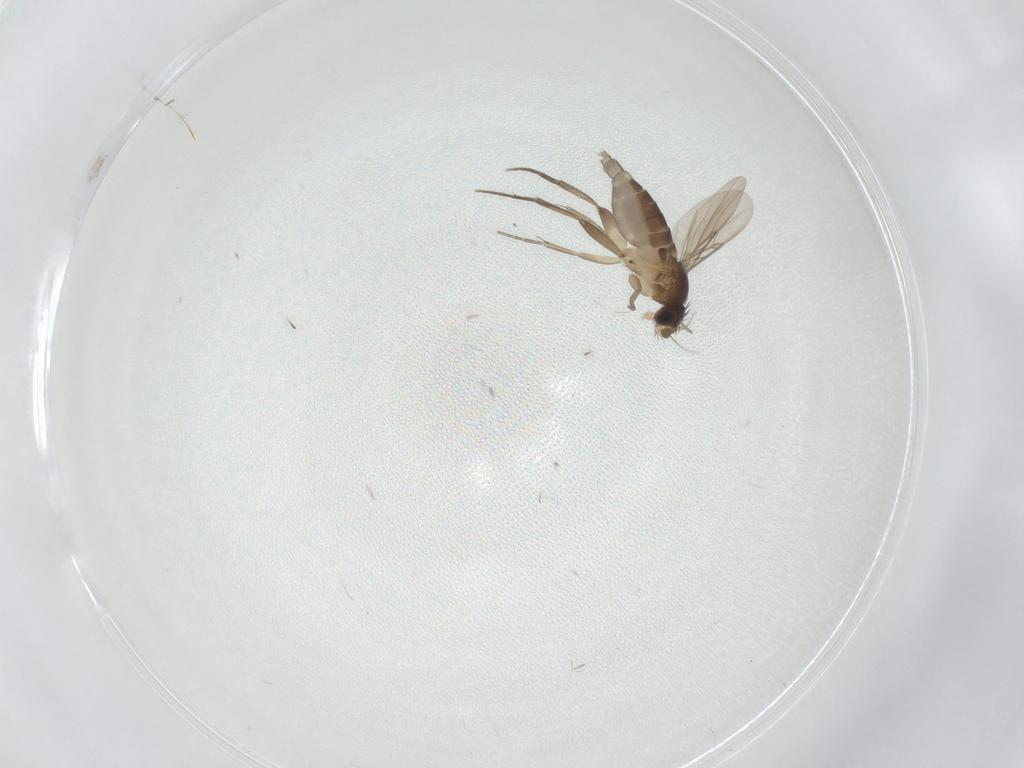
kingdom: Animalia
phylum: Arthropoda
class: Insecta
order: Diptera
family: Phoridae
